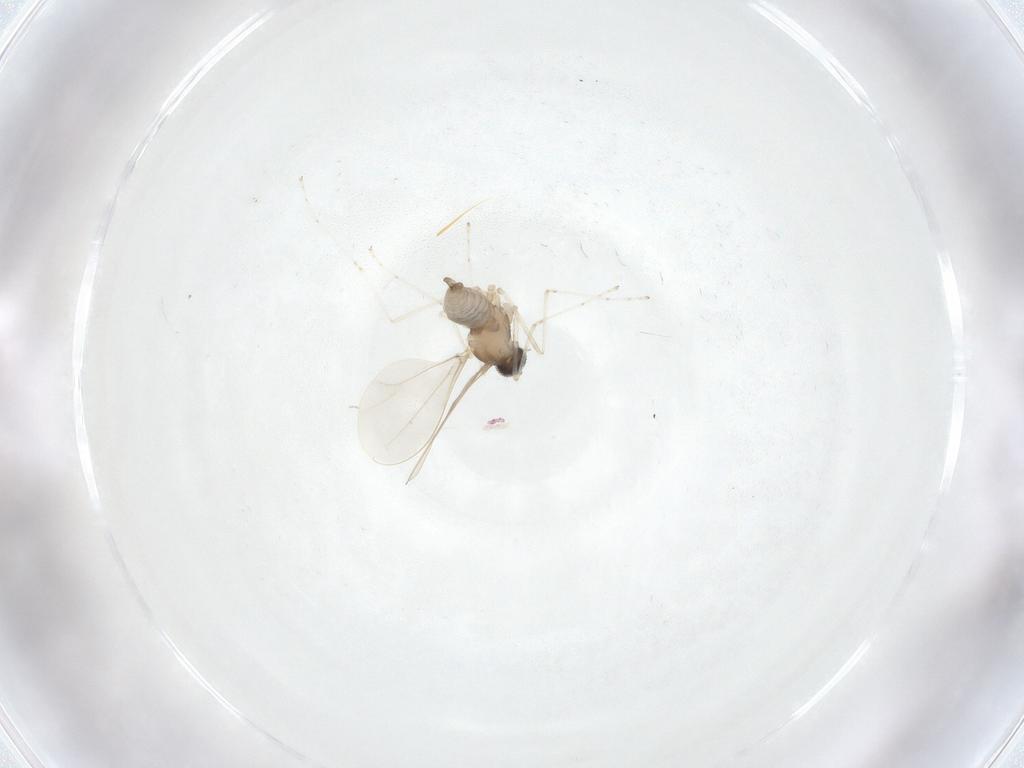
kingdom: Animalia
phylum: Arthropoda
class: Insecta
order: Diptera
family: Cecidomyiidae
